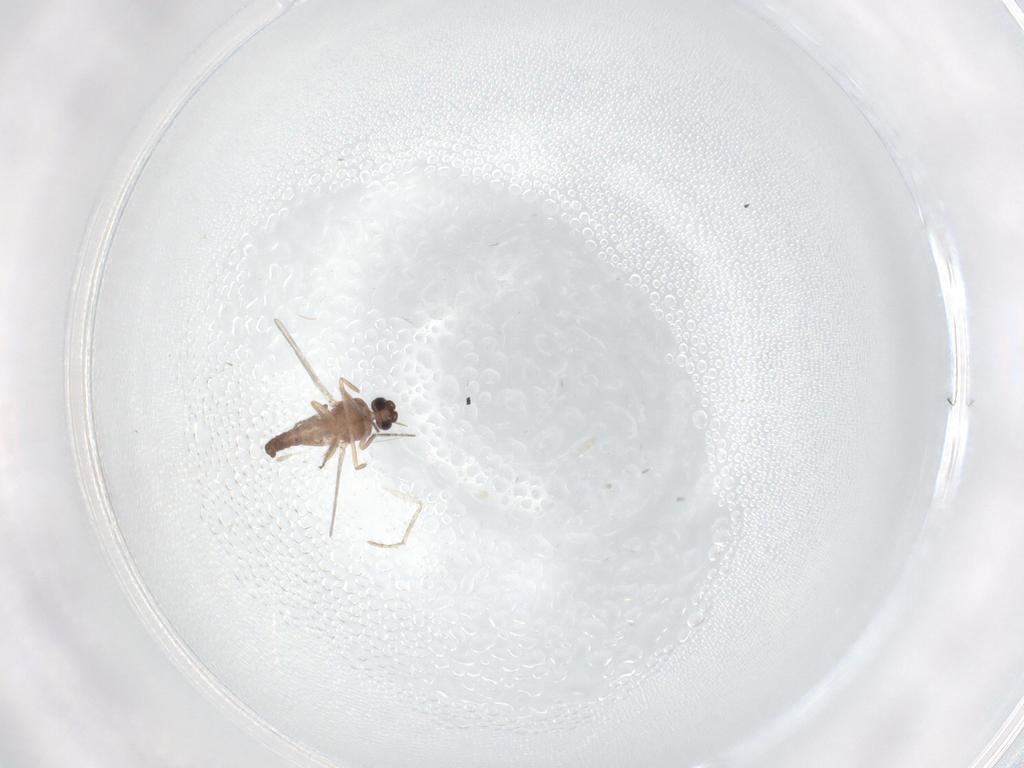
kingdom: Animalia
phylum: Arthropoda
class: Insecta
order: Diptera
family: Ceratopogonidae
